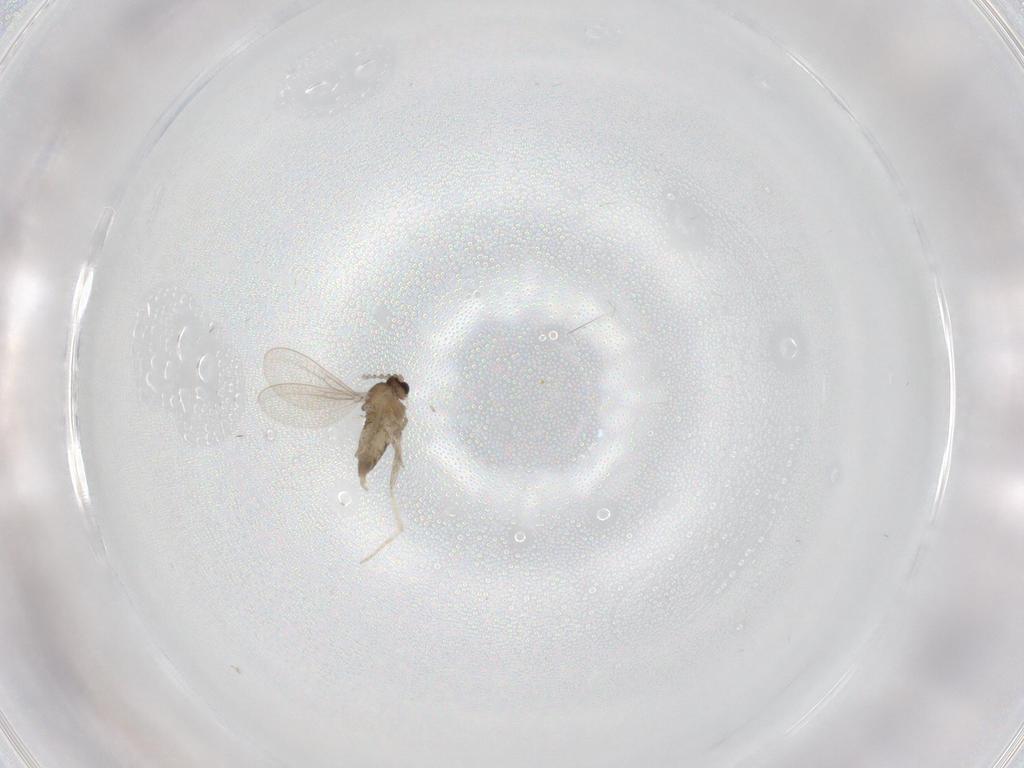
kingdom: Animalia
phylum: Arthropoda
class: Insecta
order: Diptera
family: Cecidomyiidae
